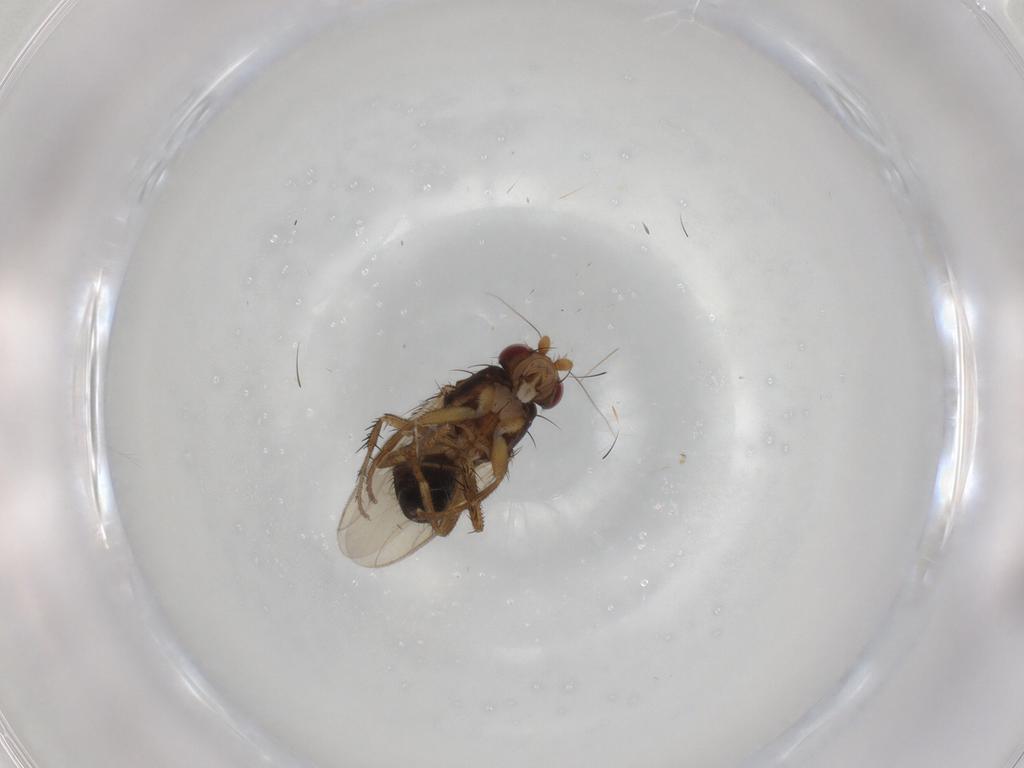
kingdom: Animalia
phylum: Arthropoda
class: Insecta
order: Diptera
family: Sphaeroceridae
